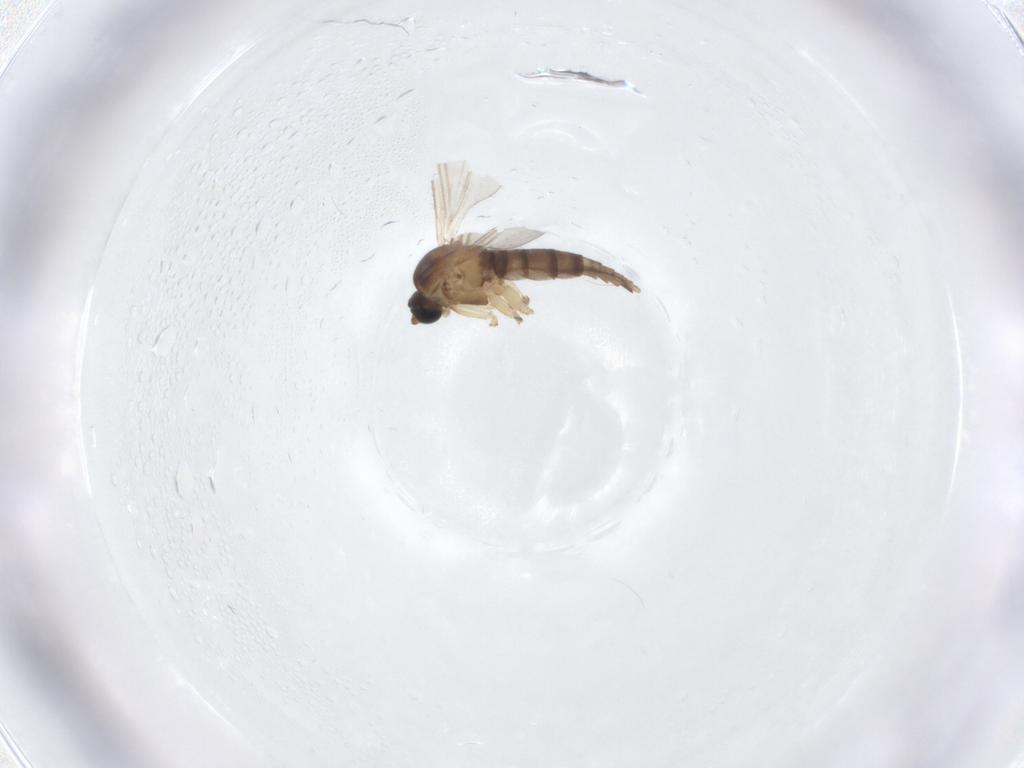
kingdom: Animalia
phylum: Arthropoda
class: Insecta
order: Diptera
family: Sciaridae
